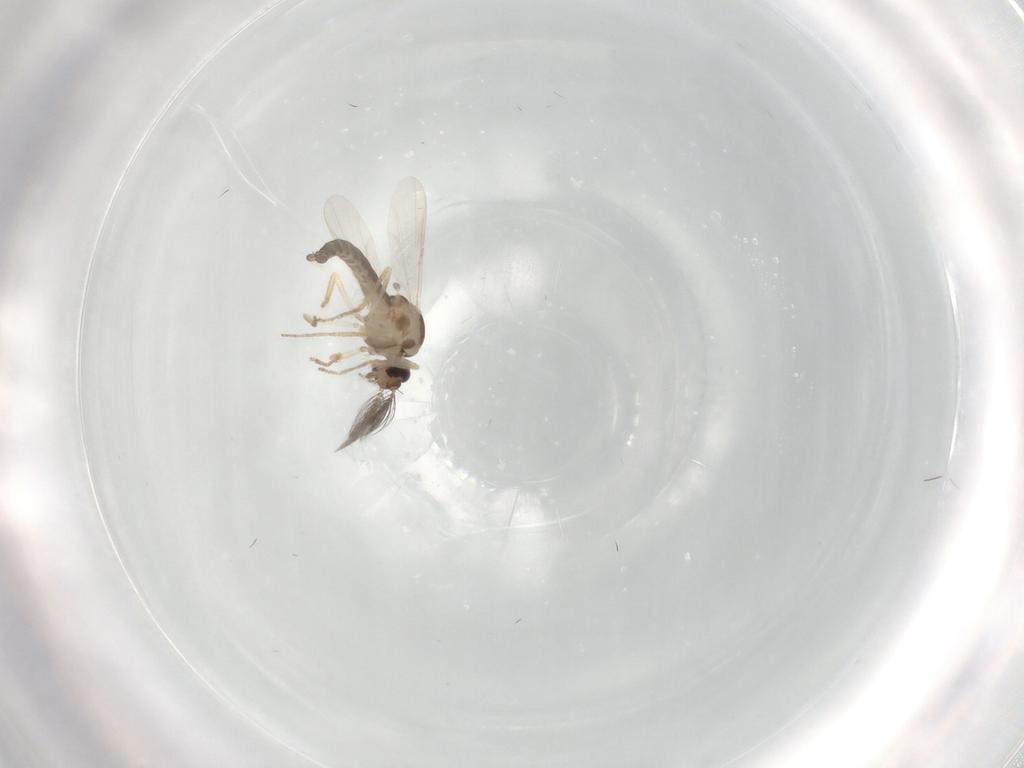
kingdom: Animalia
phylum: Arthropoda
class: Insecta
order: Diptera
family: Ceratopogonidae
